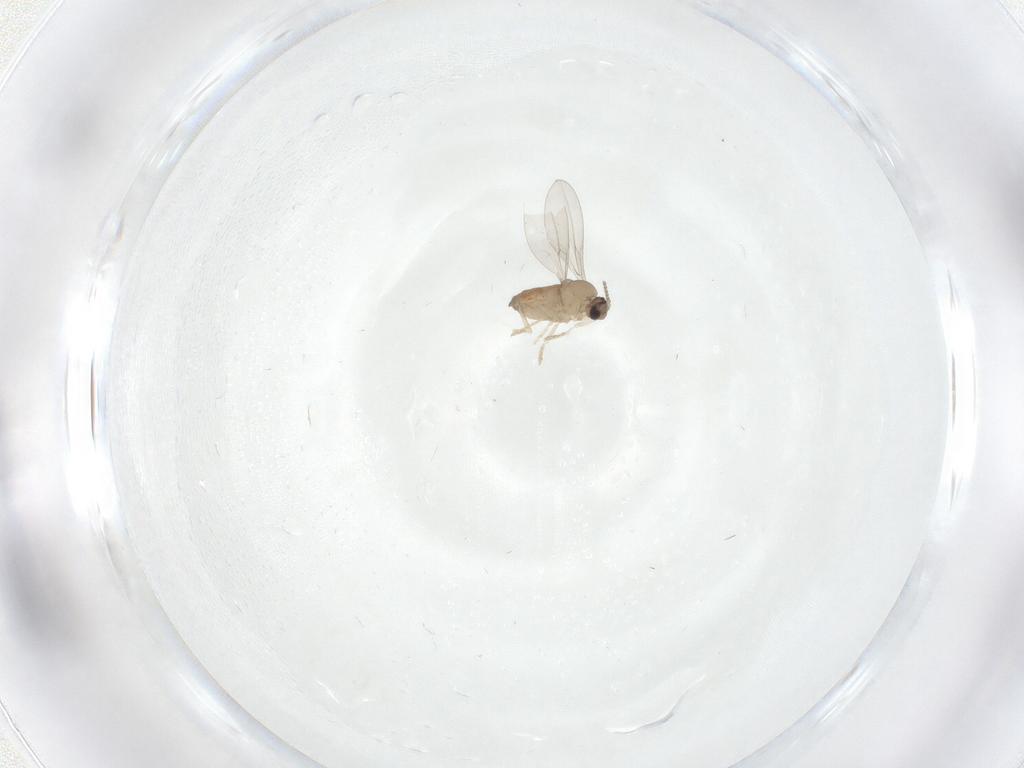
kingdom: Animalia
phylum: Arthropoda
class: Insecta
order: Diptera
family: Cecidomyiidae
